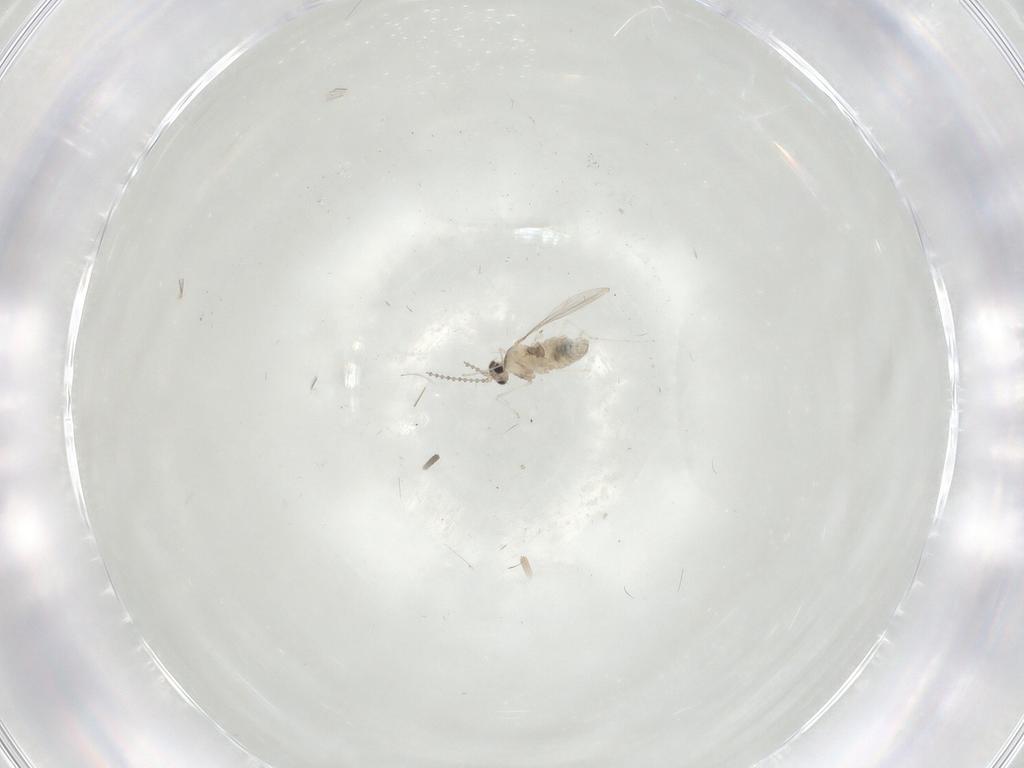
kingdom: Animalia
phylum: Arthropoda
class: Insecta
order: Diptera
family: Cecidomyiidae
